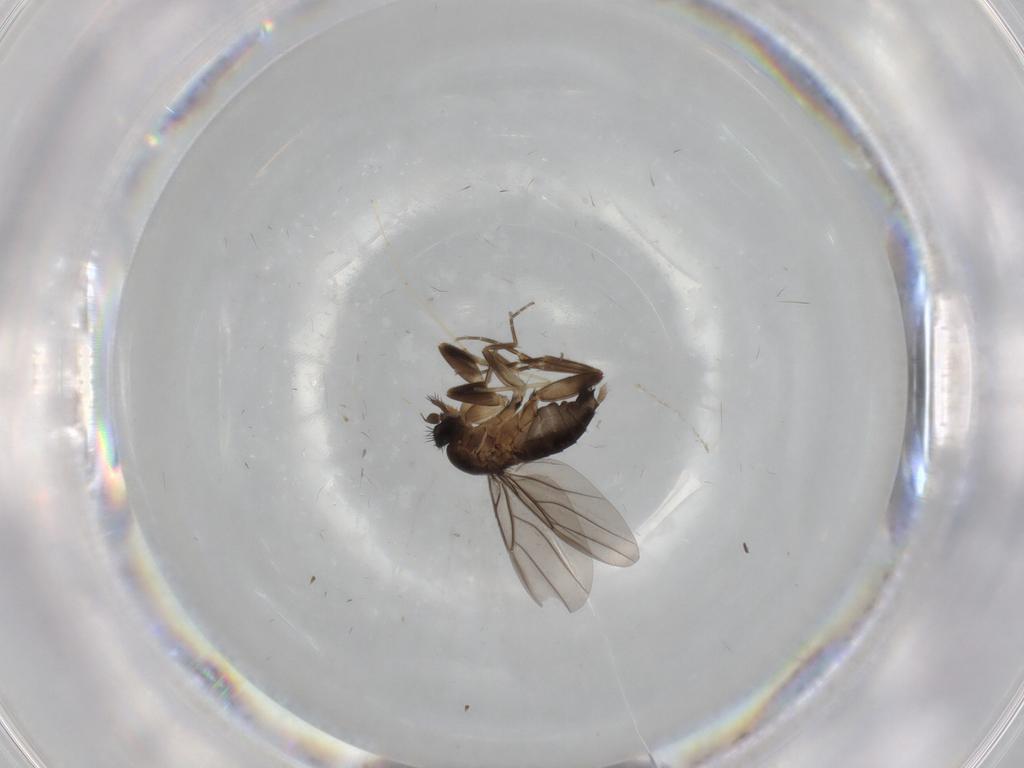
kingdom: Animalia
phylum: Arthropoda
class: Insecta
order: Diptera
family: Cecidomyiidae
